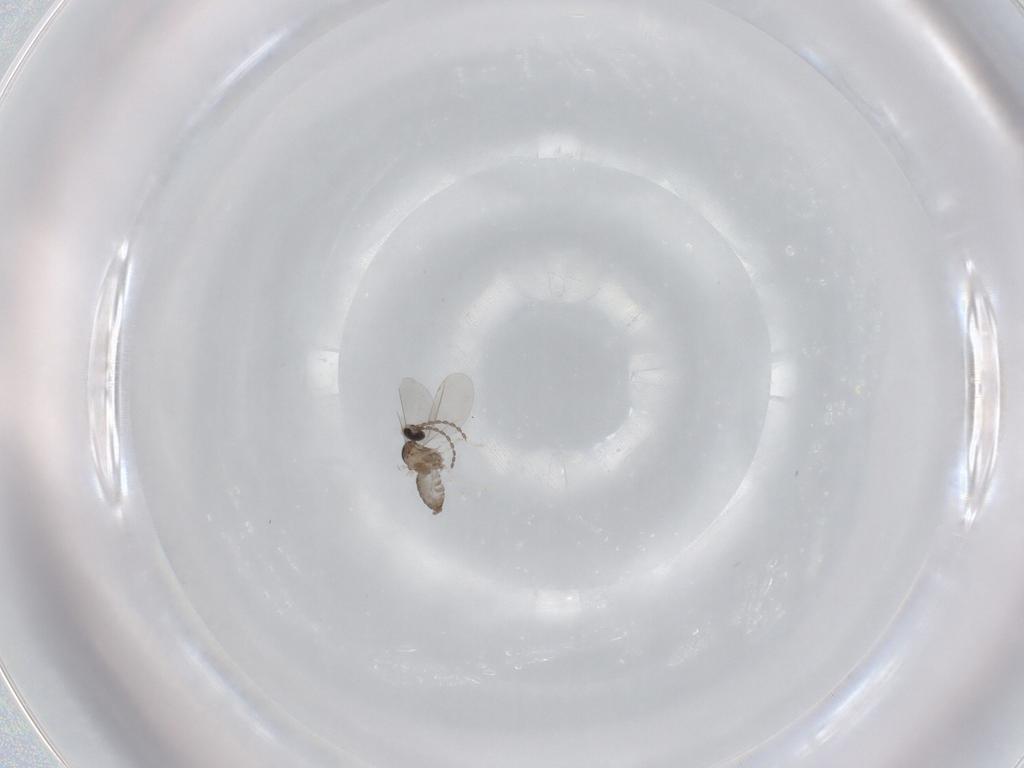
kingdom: Animalia
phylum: Arthropoda
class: Insecta
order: Diptera
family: Cecidomyiidae
